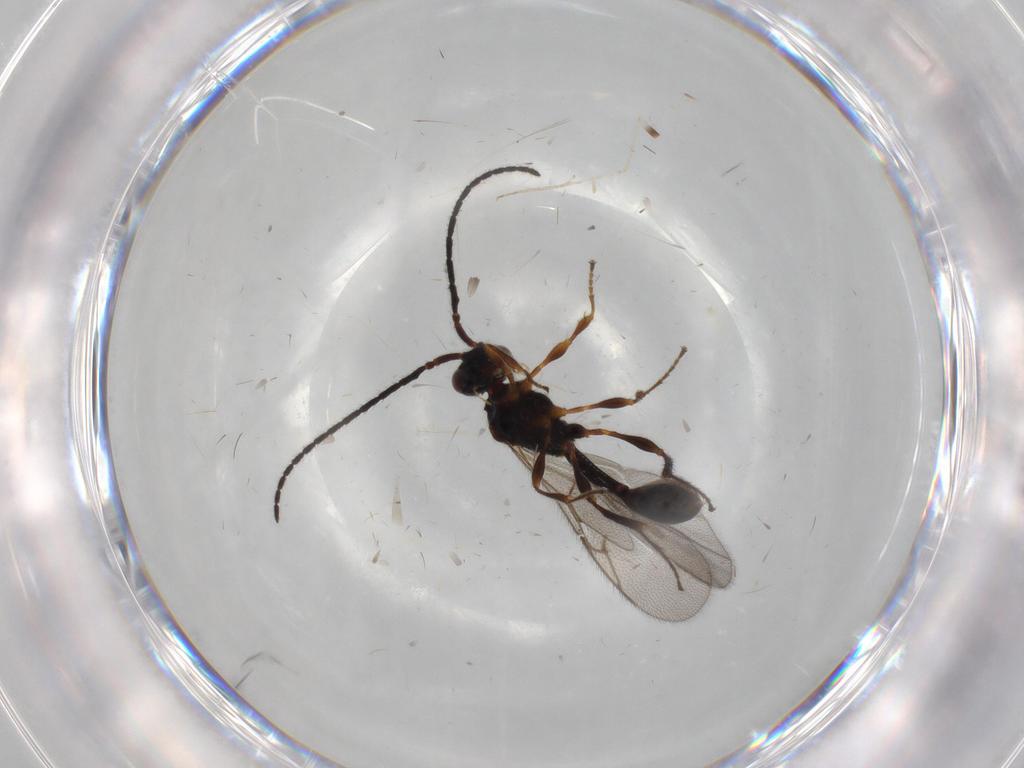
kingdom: Animalia
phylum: Arthropoda
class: Insecta
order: Hymenoptera
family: Diapriidae
